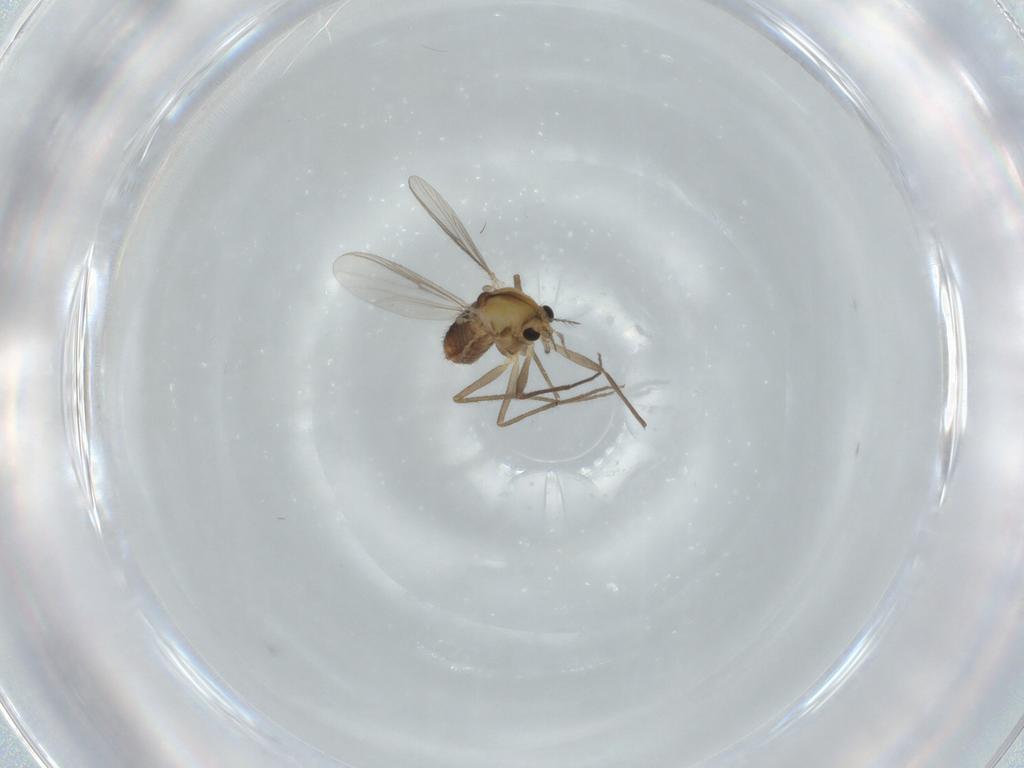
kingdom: Animalia
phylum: Arthropoda
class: Insecta
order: Diptera
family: Chironomidae
